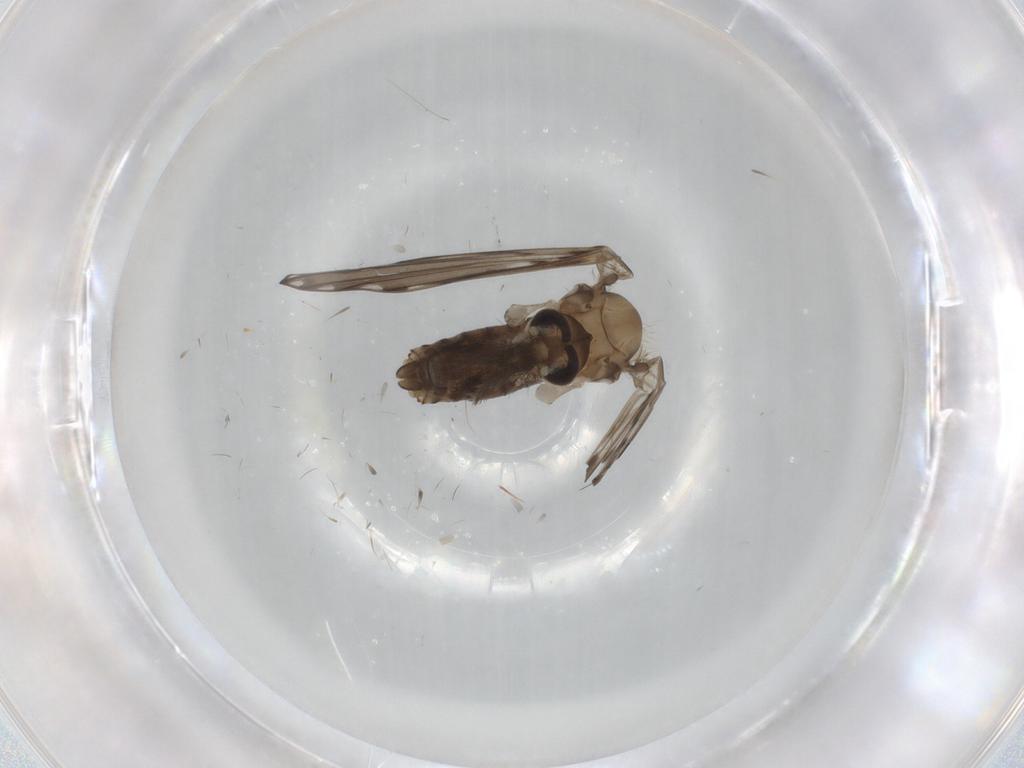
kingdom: Animalia
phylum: Arthropoda
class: Insecta
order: Diptera
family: Psychodidae
